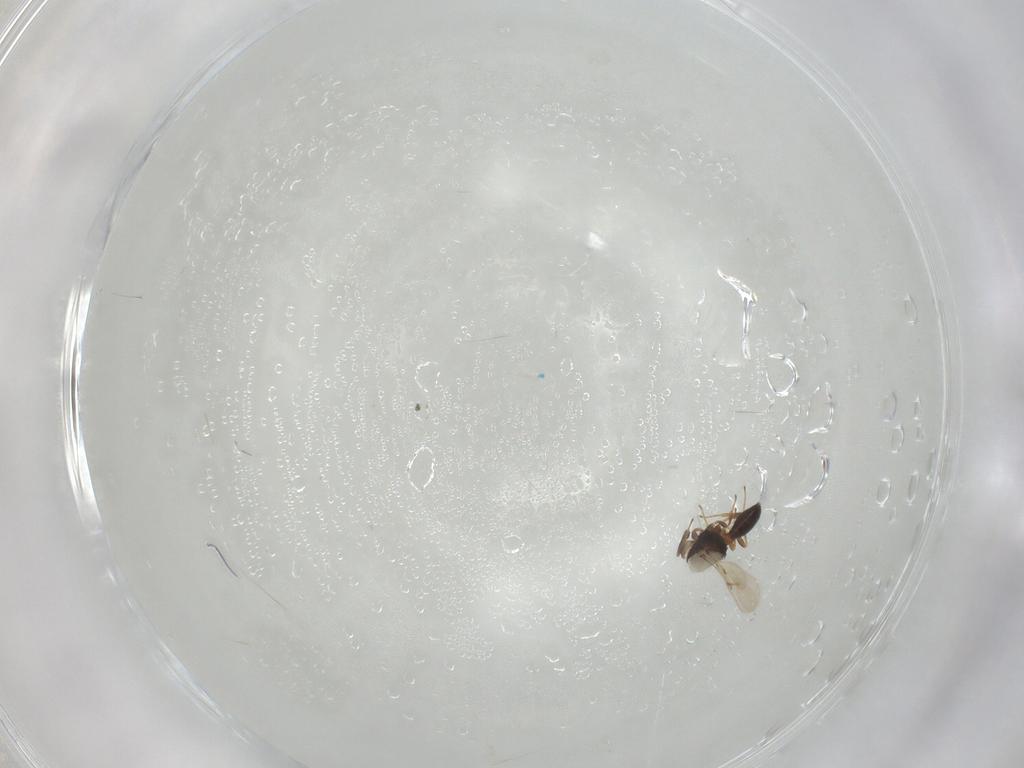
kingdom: Animalia
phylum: Arthropoda
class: Insecta
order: Hymenoptera
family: Scelionidae
